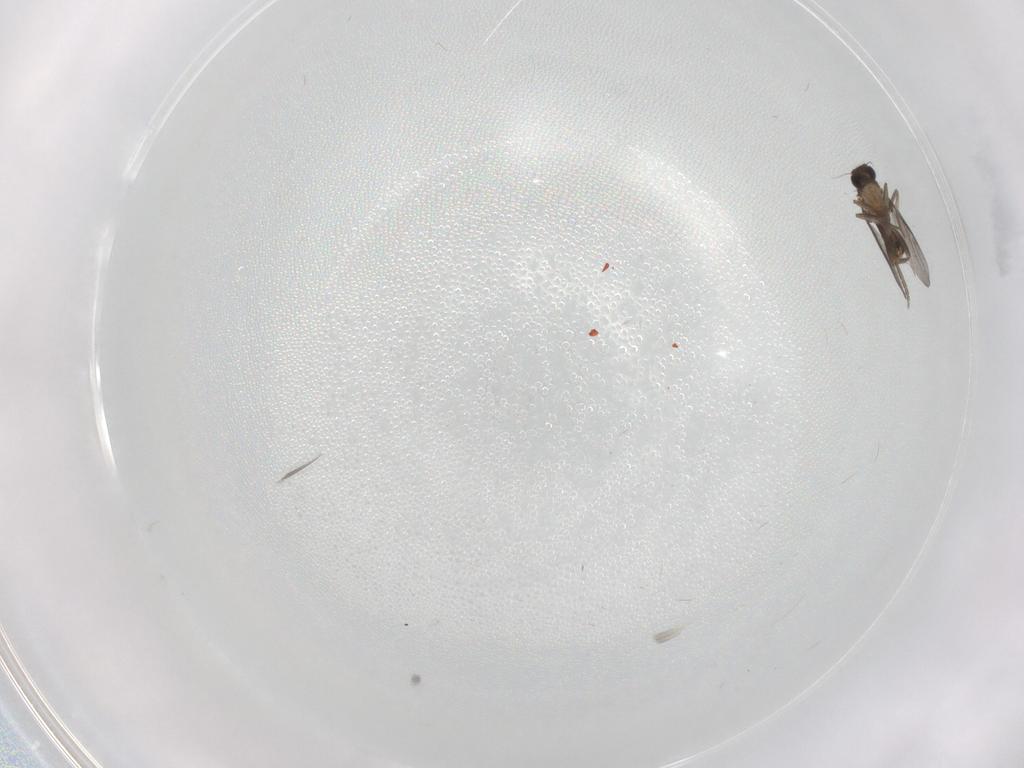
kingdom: Animalia
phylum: Arthropoda
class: Insecta
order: Diptera
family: Chironomidae
